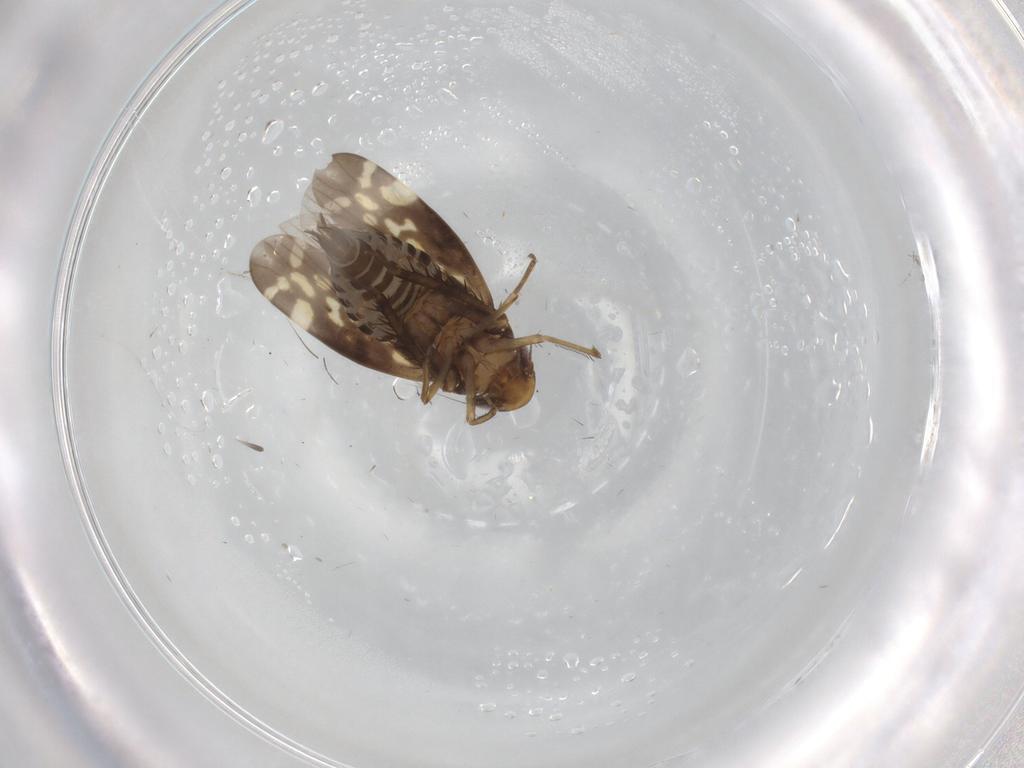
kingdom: Animalia
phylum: Arthropoda
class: Insecta
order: Hemiptera
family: Cicadellidae
